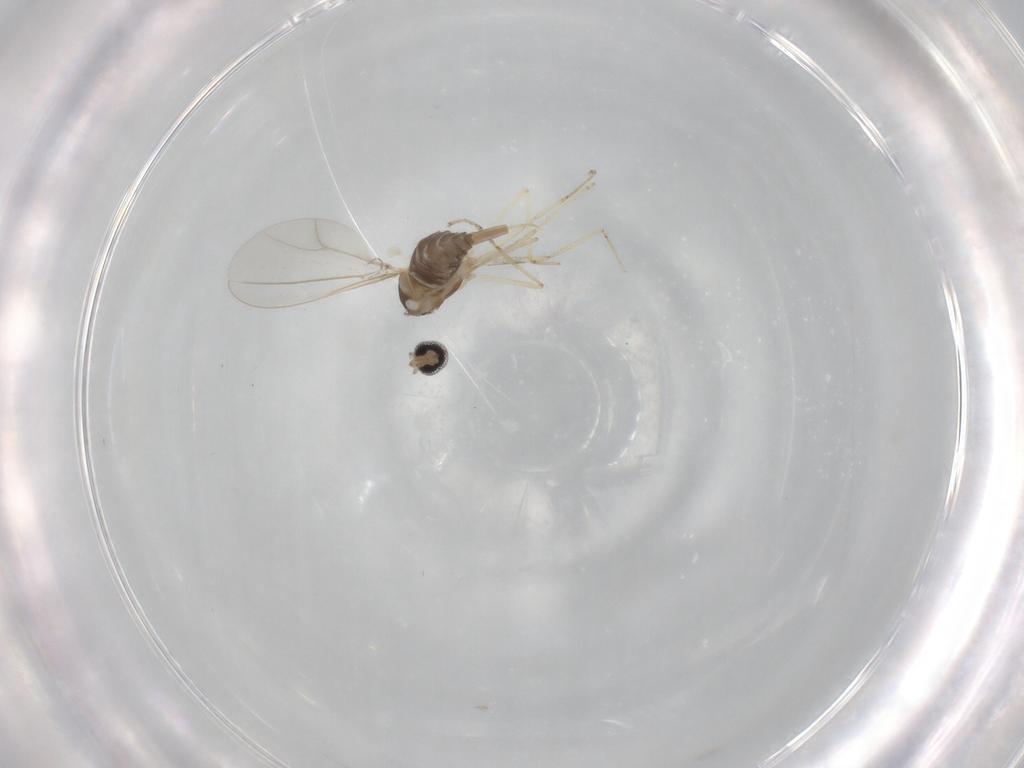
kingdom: Animalia
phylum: Arthropoda
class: Insecta
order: Diptera
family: Cecidomyiidae
